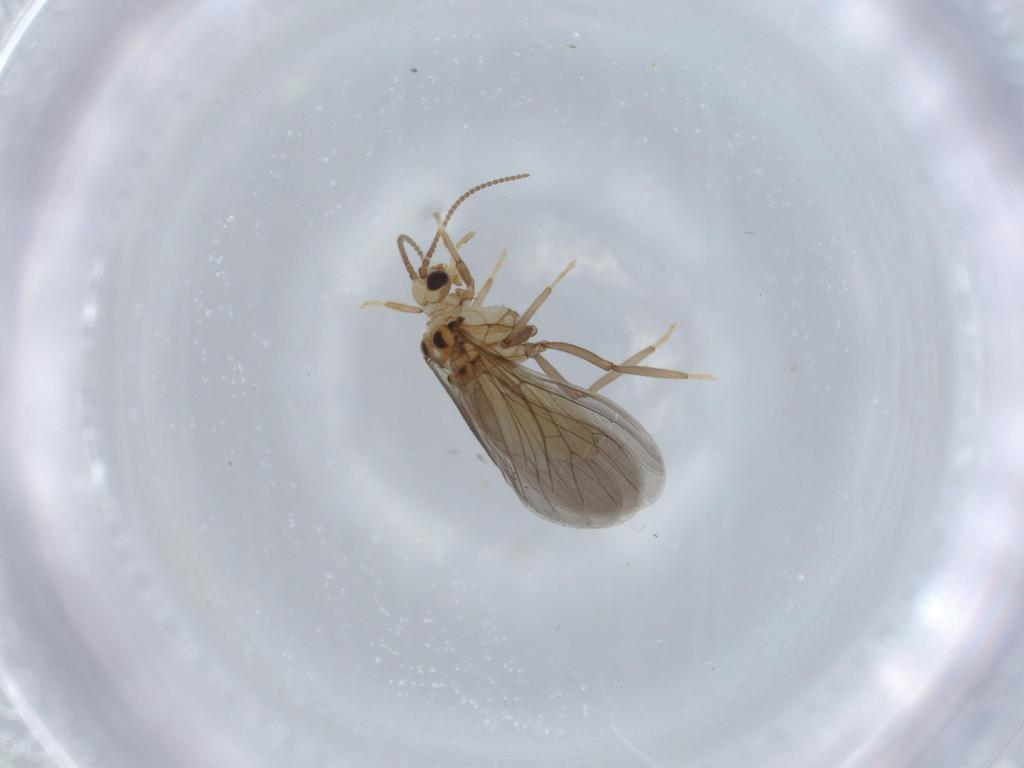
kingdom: Animalia
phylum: Arthropoda
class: Insecta
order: Neuroptera
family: Coniopterygidae
